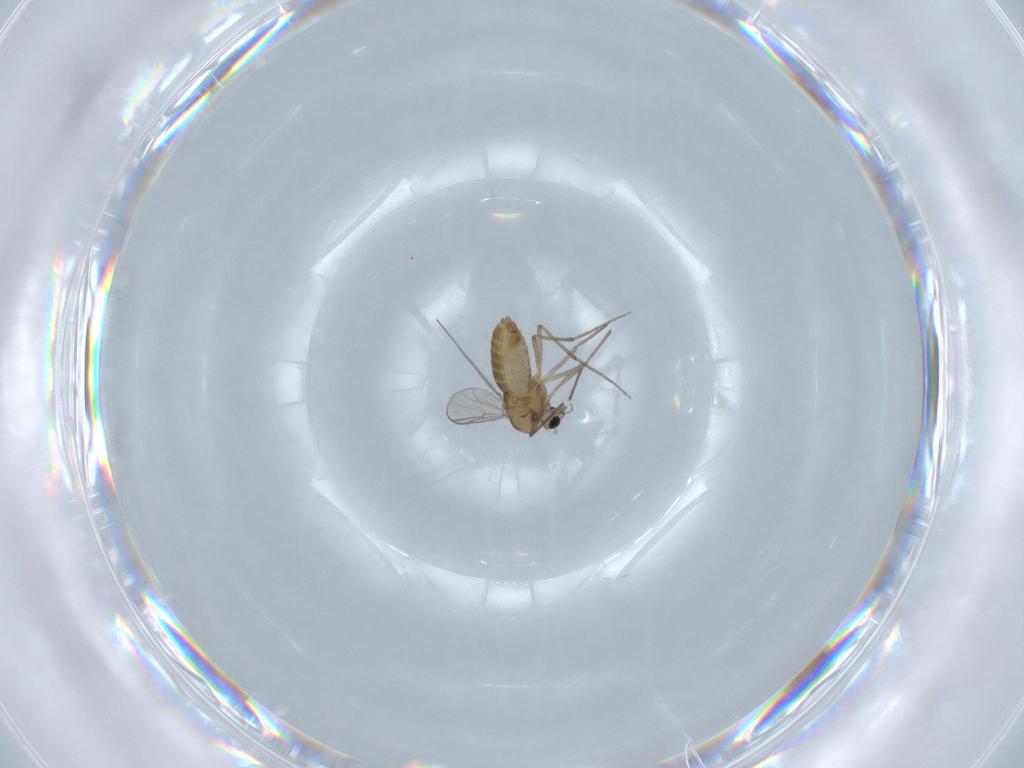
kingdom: Animalia
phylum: Arthropoda
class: Insecta
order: Diptera
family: Chironomidae
